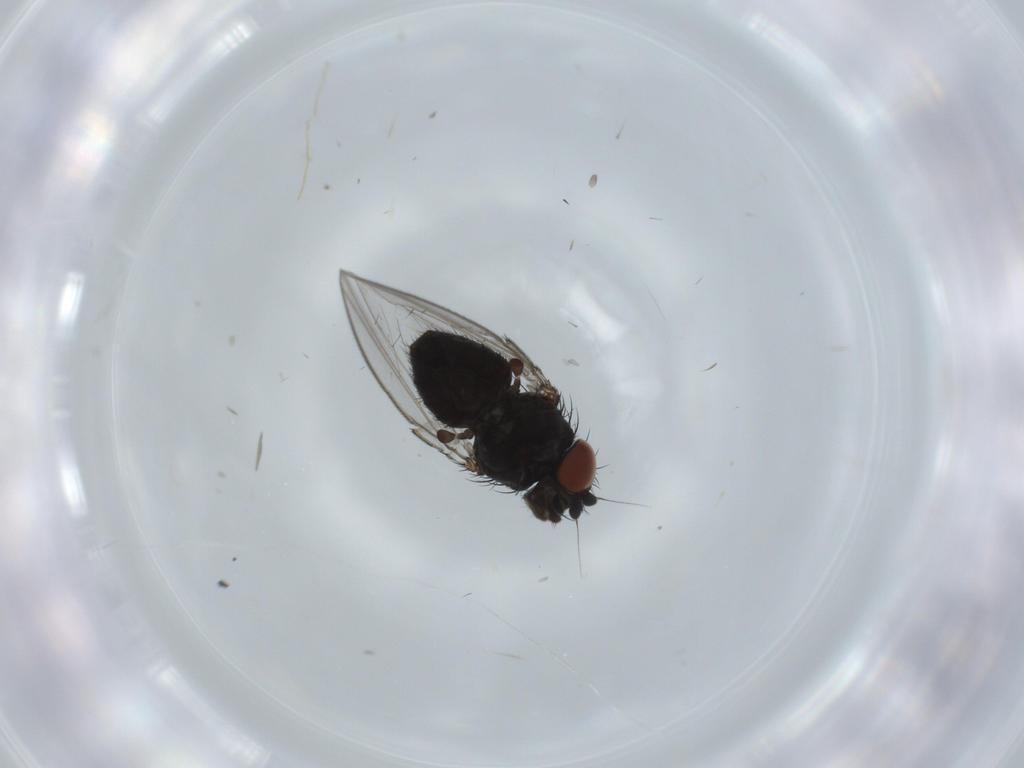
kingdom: Animalia
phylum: Arthropoda
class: Insecta
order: Diptera
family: Milichiidae
